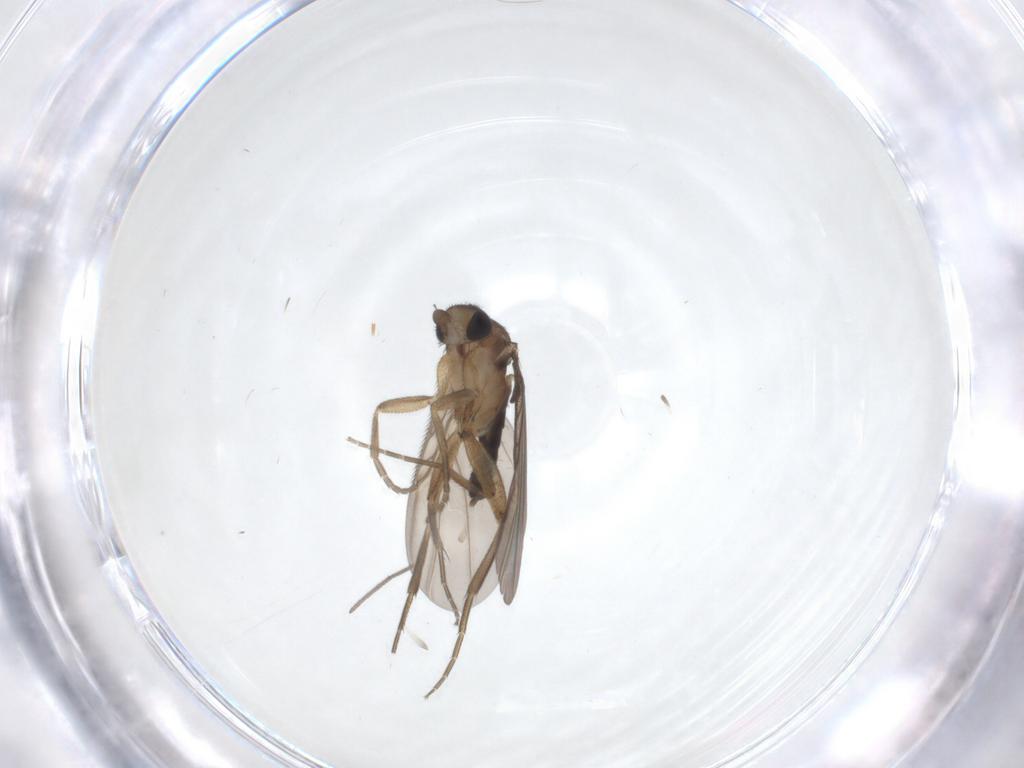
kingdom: Animalia
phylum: Arthropoda
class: Insecta
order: Diptera
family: Phoridae
